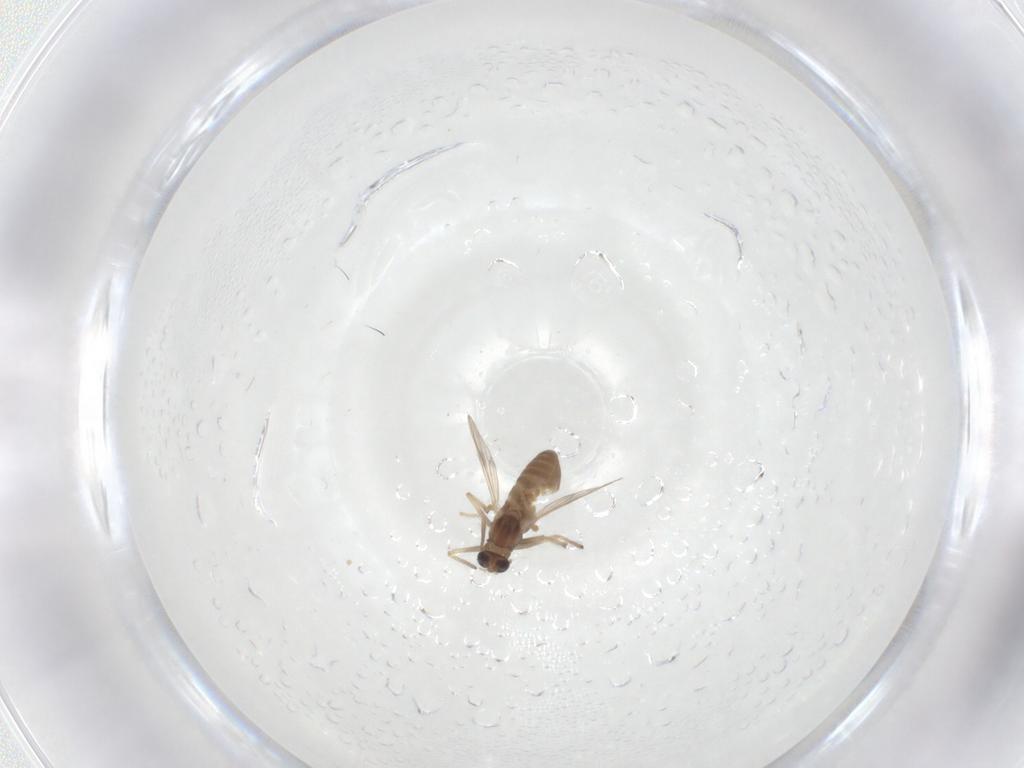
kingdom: Animalia
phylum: Arthropoda
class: Insecta
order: Diptera
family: Chironomidae
